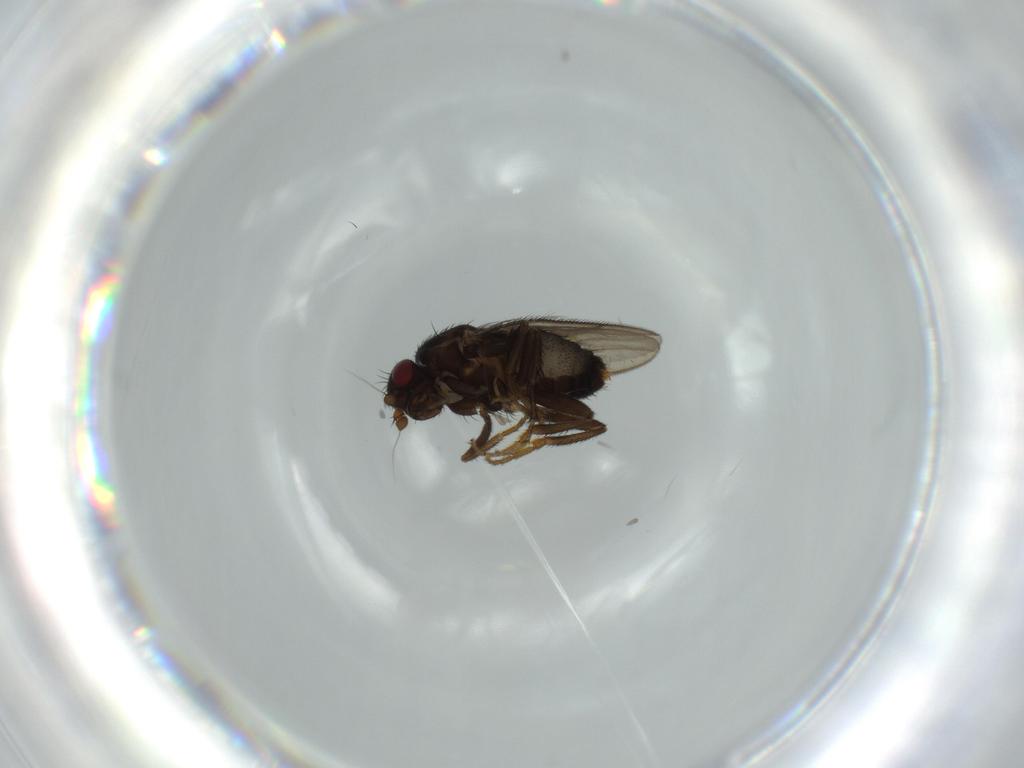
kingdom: Animalia
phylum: Arthropoda
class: Insecta
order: Diptera
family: Sphaeroceridae
